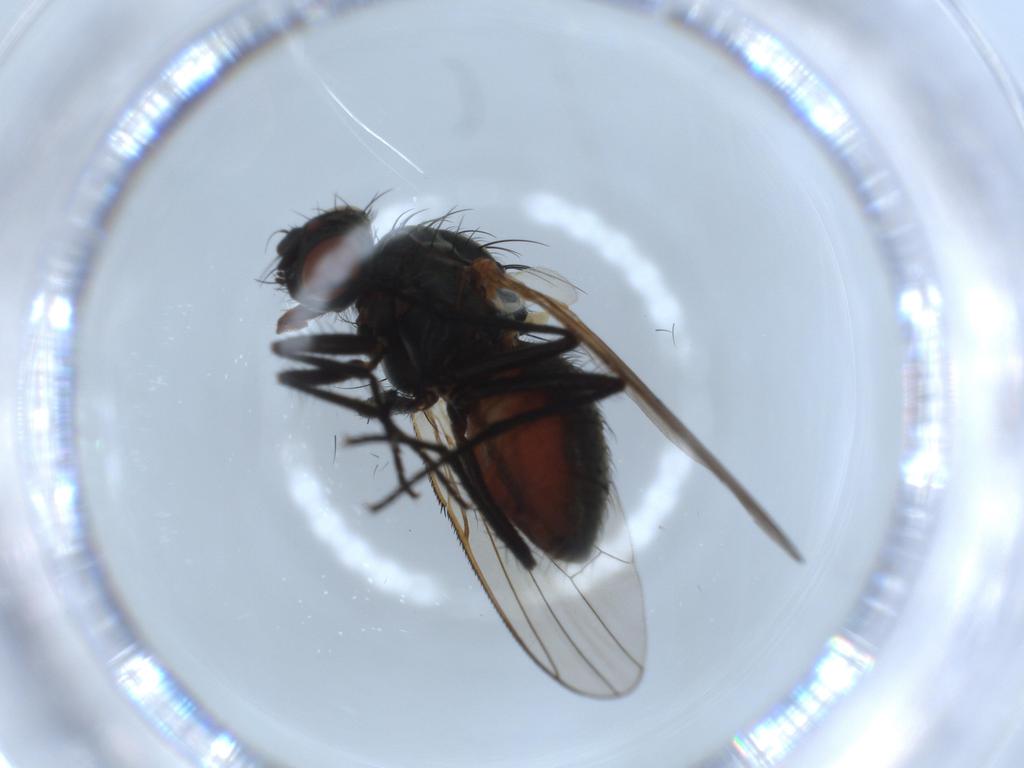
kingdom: Animalia
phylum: Arthropoda
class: Insecta
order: Diptera
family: Anthomyiidae
